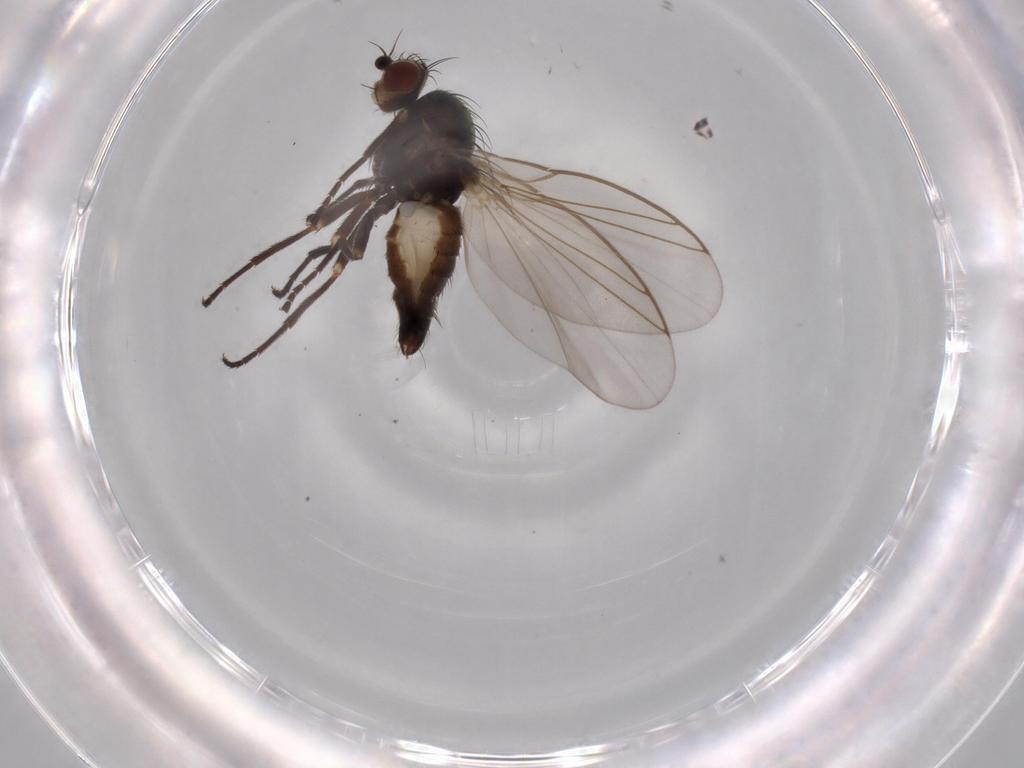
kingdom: Animalia
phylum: Arthropoda
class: Insecta
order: Diptera
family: Agromyzidae
